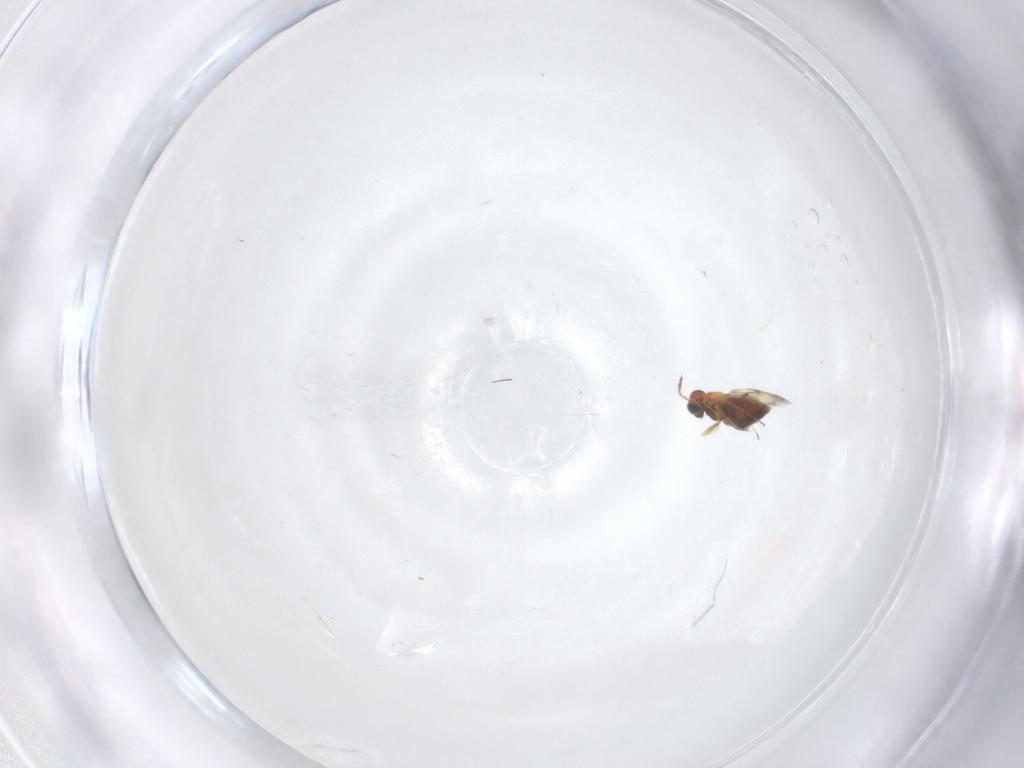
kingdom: Animalia
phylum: Arthropoda
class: Insecta
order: Hymenoptera
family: Trichogrammatidae
